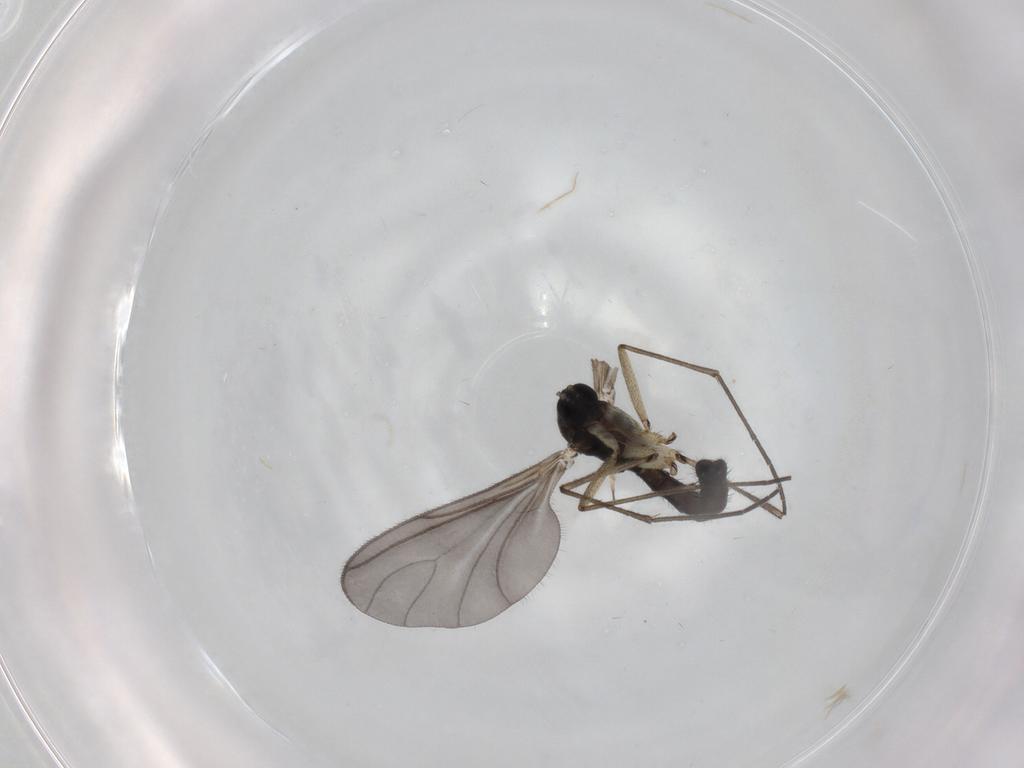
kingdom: Animalia
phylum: Arthropoda
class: Insecta
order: Diptera
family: Sciaridae
